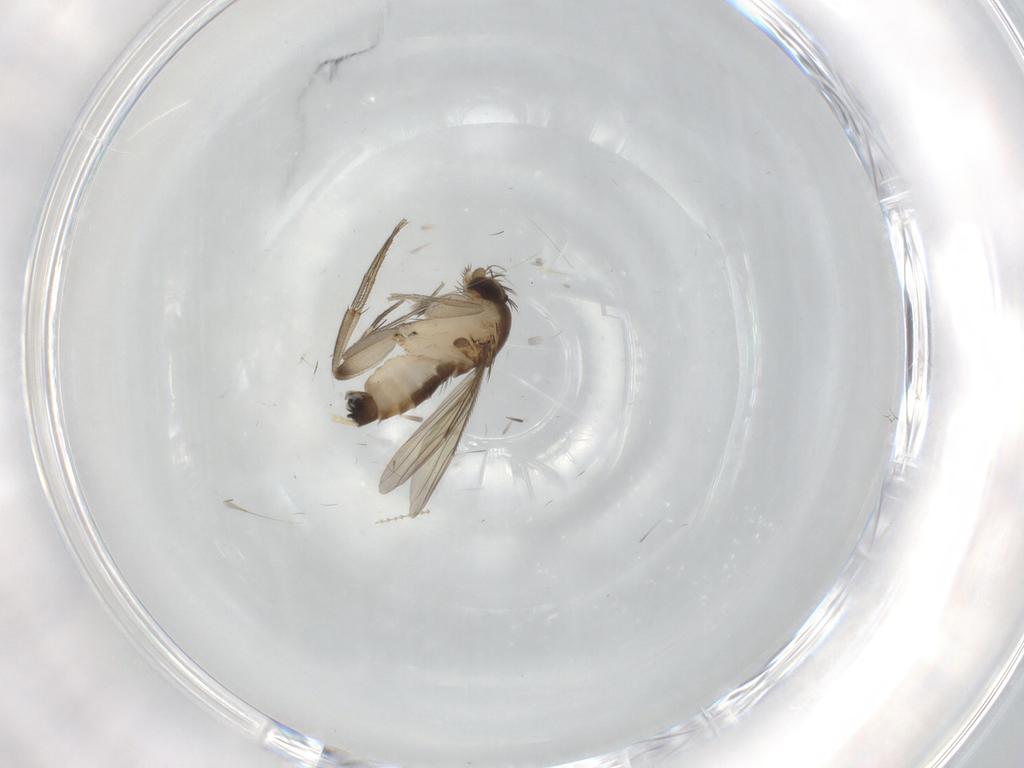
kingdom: Animalia
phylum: Arthropoda
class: Insecta
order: Diptera
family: Phoridae
